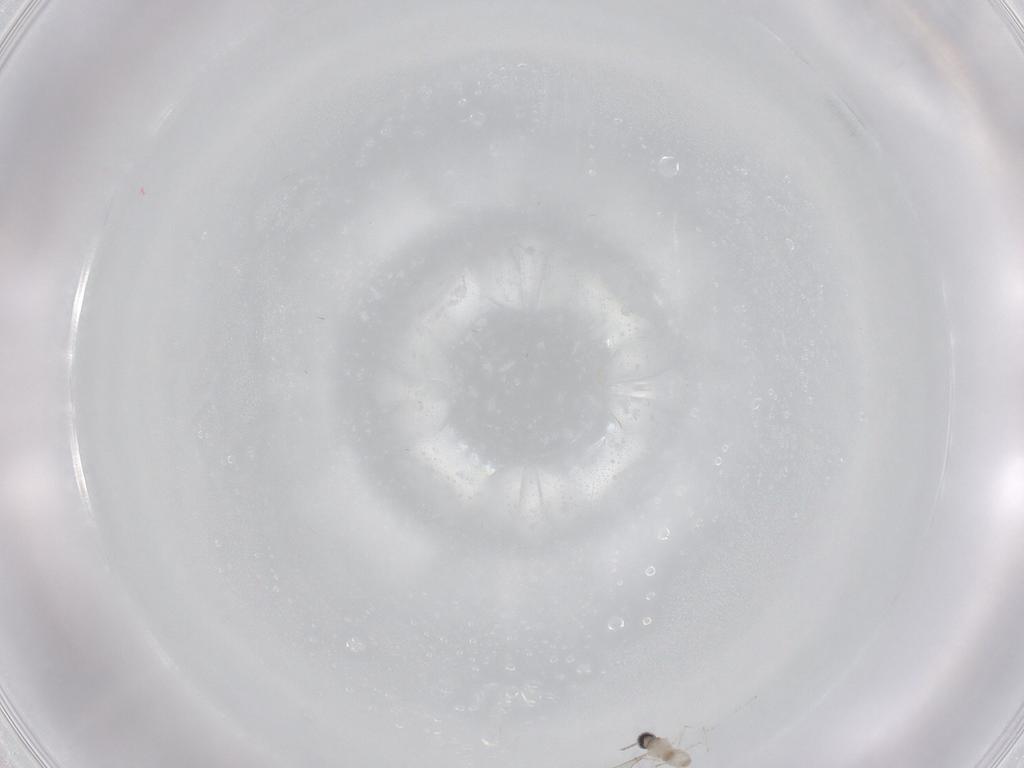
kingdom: Animalia
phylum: Arthropoda
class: Insecta
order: Diptera
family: Cecidomyiidae
